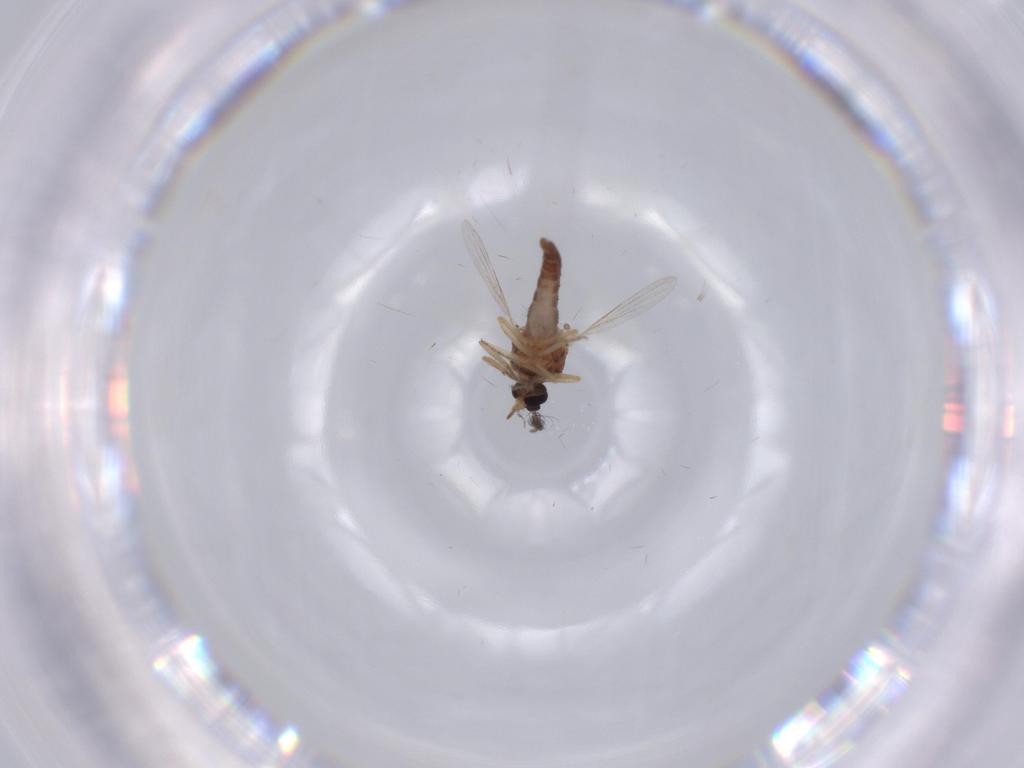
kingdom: Animalia
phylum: Arthropoda
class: Insecta
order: Diptera
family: Ceratopogonidae
